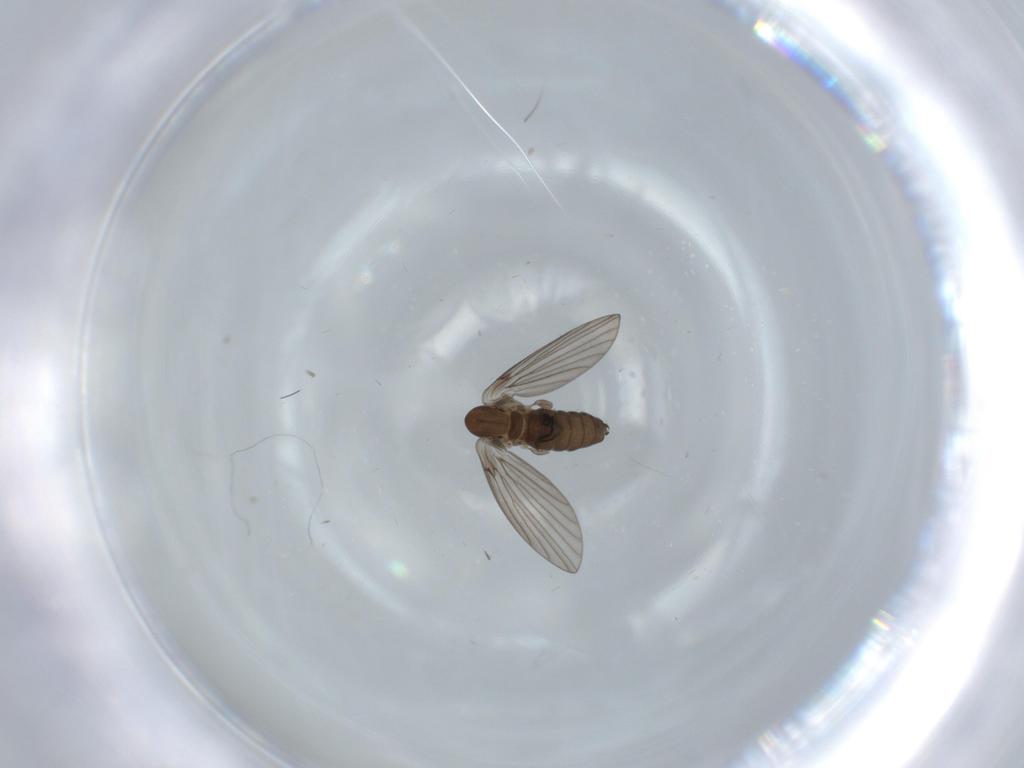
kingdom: Animalia
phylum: Arthropoda
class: Insecta
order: Diptera
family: Psychodidae
